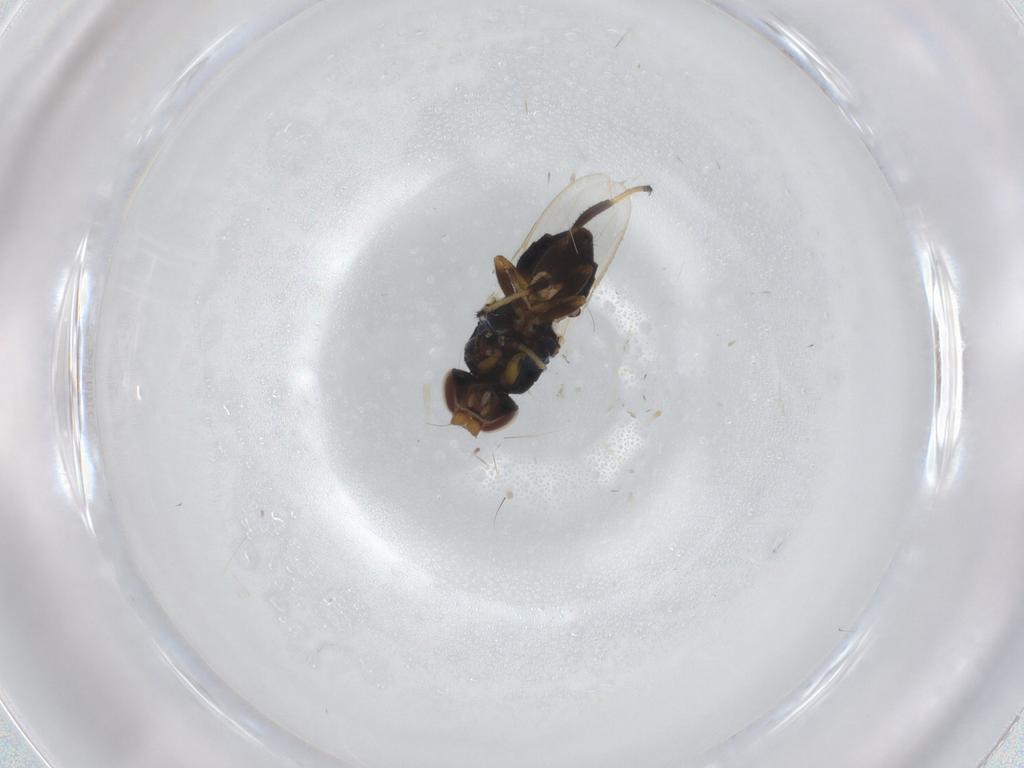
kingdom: Animalia
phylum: Arthropoda
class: Insecta
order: Diptera
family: Chloropidae
